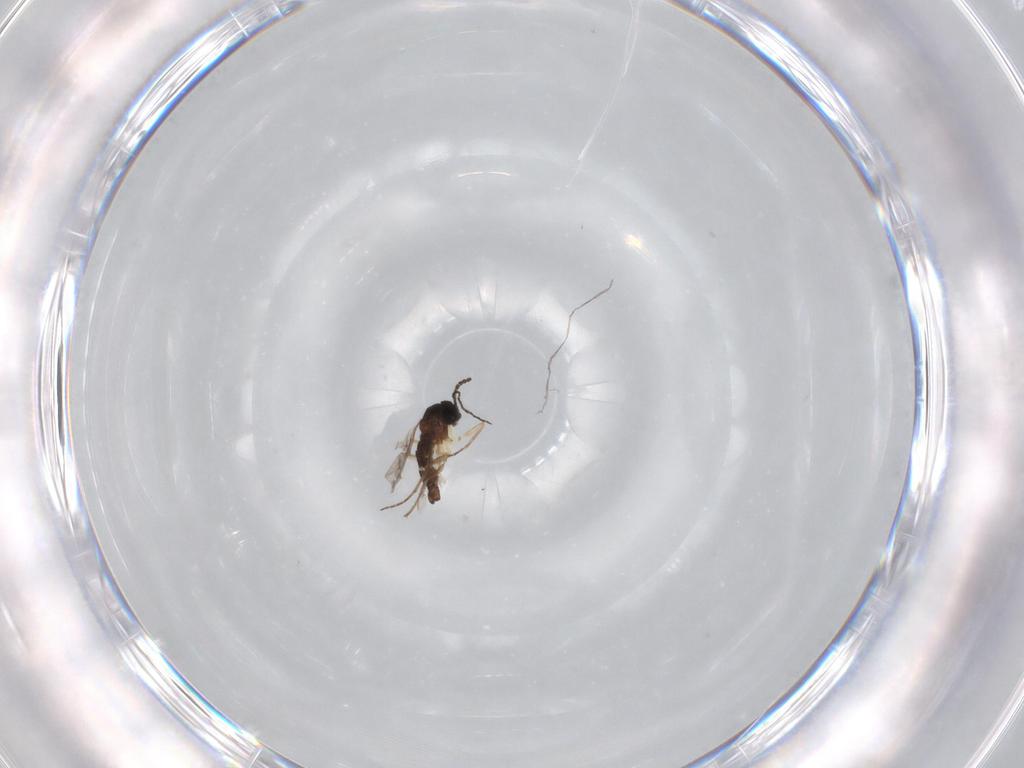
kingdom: Animalia
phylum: Arthropoda
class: Insecta
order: Diptera
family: Sciaridae
